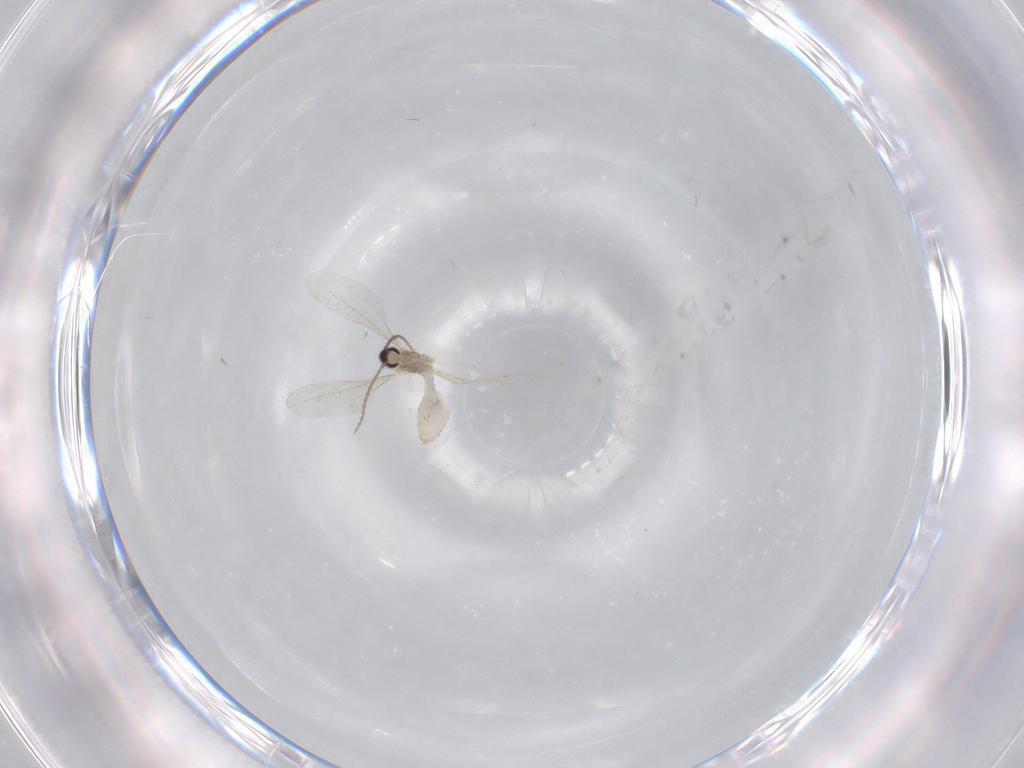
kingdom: Animalia
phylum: Arthropoda
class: Insecta
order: Diptera
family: Cecidomyiidae
